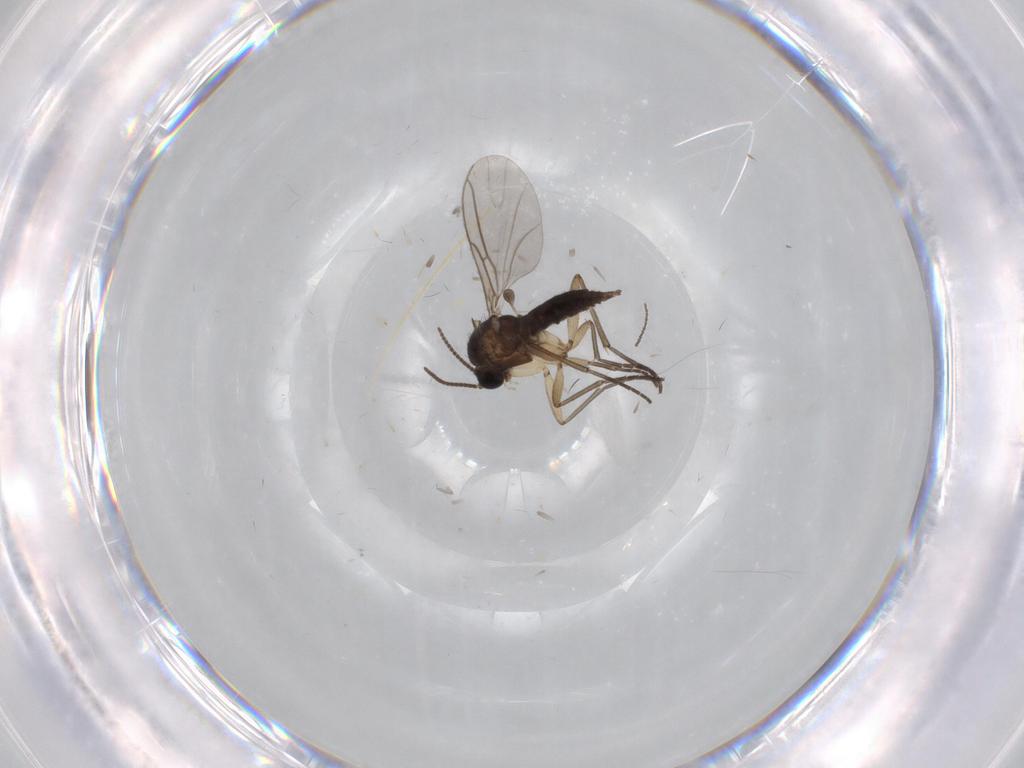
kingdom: Animalia
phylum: Arthropoda
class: Insecta
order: Diptera
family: Sciaridae
